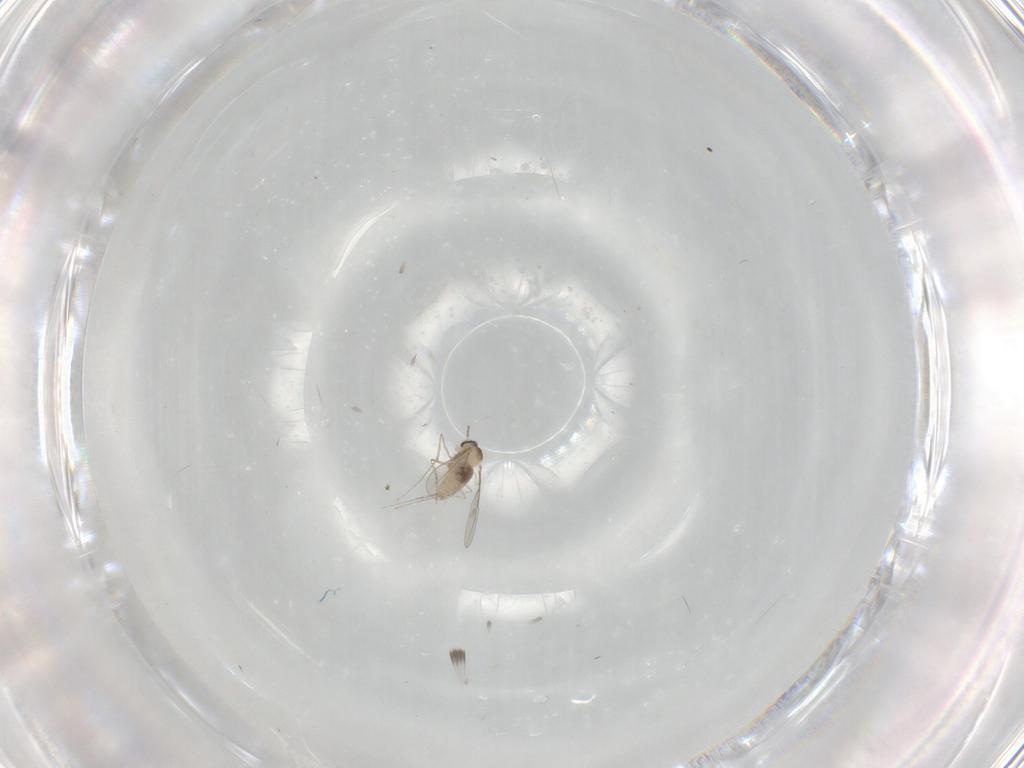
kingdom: Animalia
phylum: Arthropoda
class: Insecta
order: Diptera
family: Cecidomyiidae
